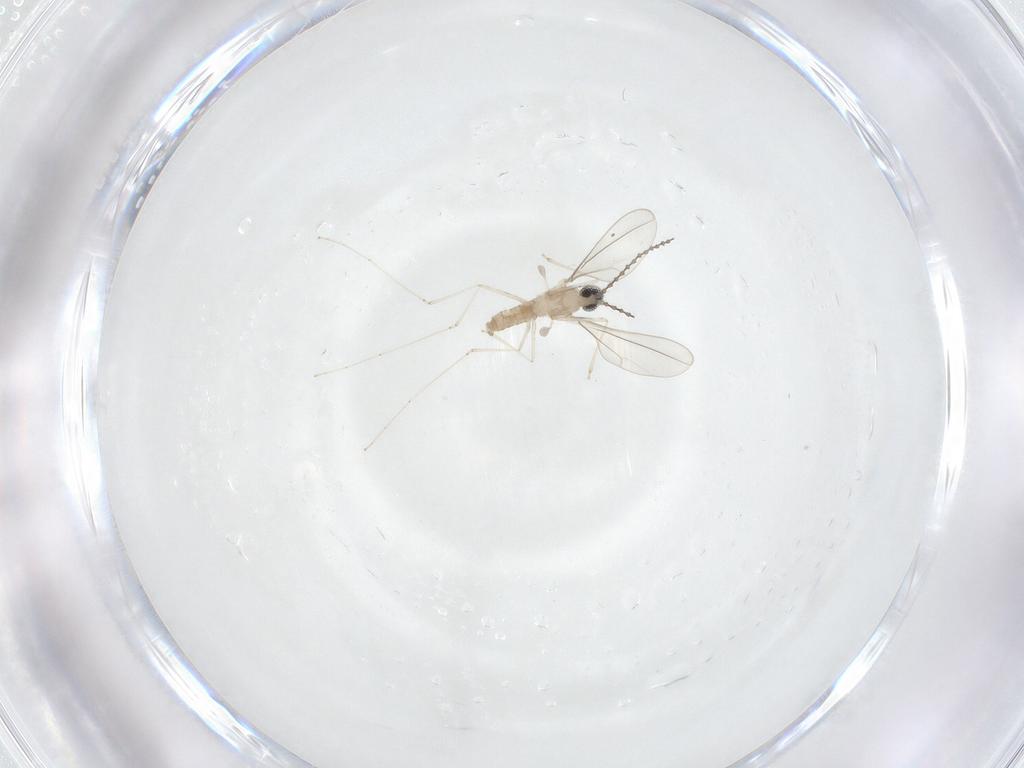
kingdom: Animalia
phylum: Arthropoda
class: Insecta
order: Diptera
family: Cecidomyiidae
